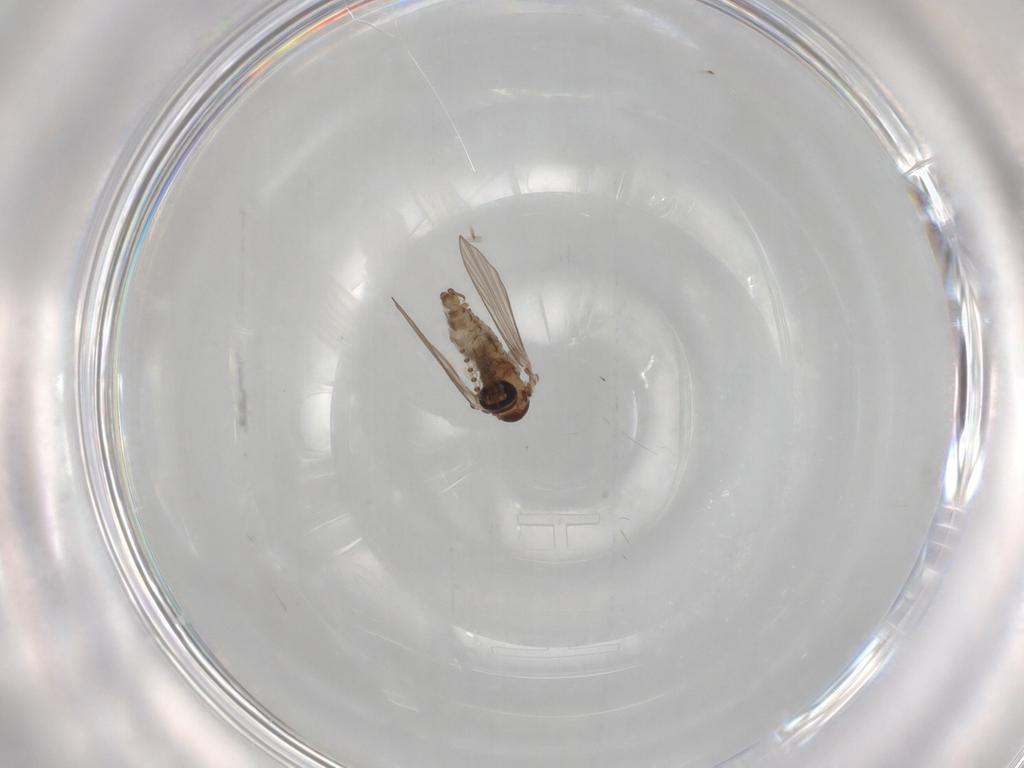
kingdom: Animalia
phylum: Arthropoda
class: Insecta
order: Diptera
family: Psychodidae
